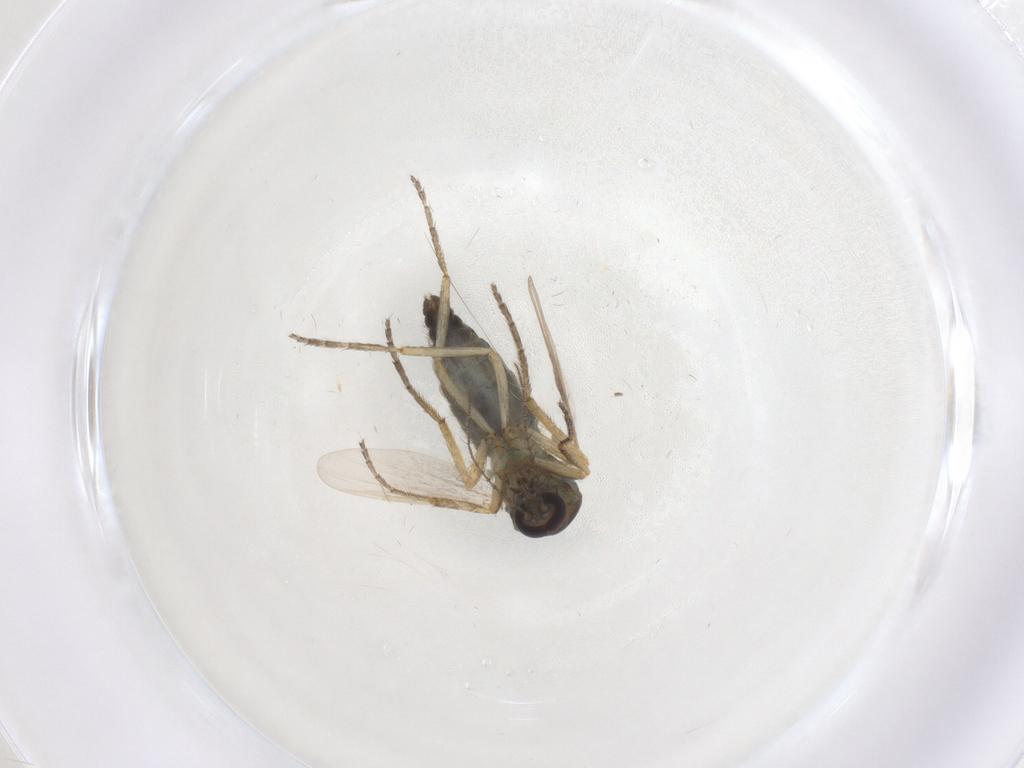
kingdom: Animalia
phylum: Arthropoda
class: Insecta
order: Diptera
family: Ceratopogonidae
